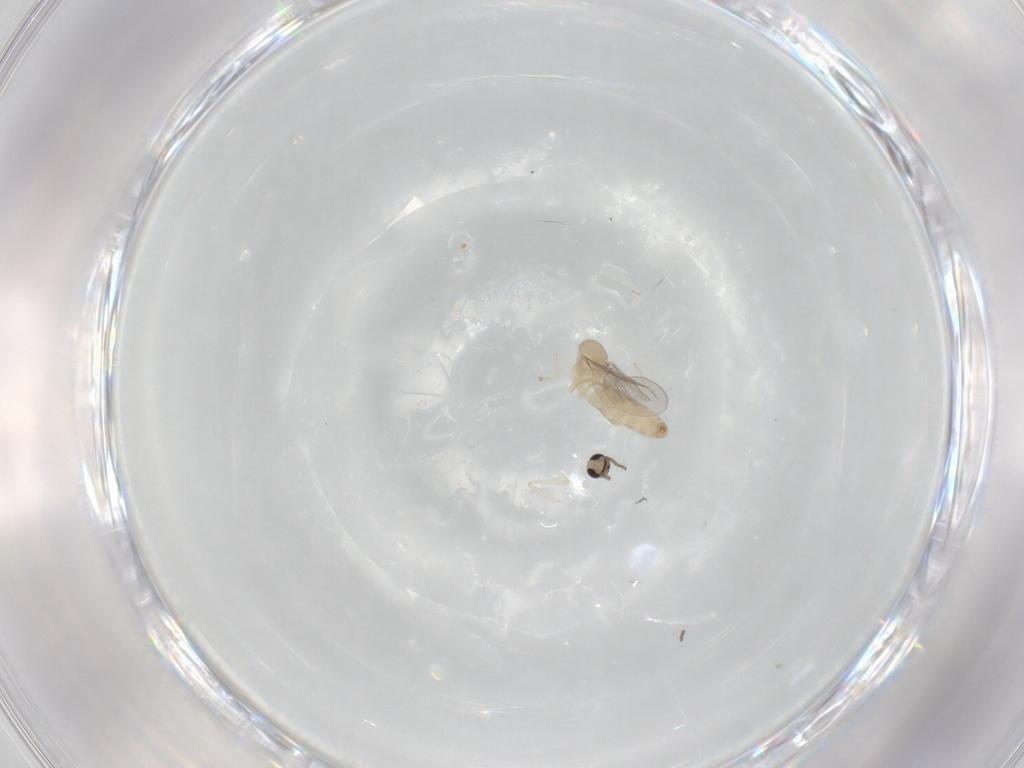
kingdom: Animalia
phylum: Arthropoda
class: Insecta
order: Diptera
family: Cecidomyiidae
